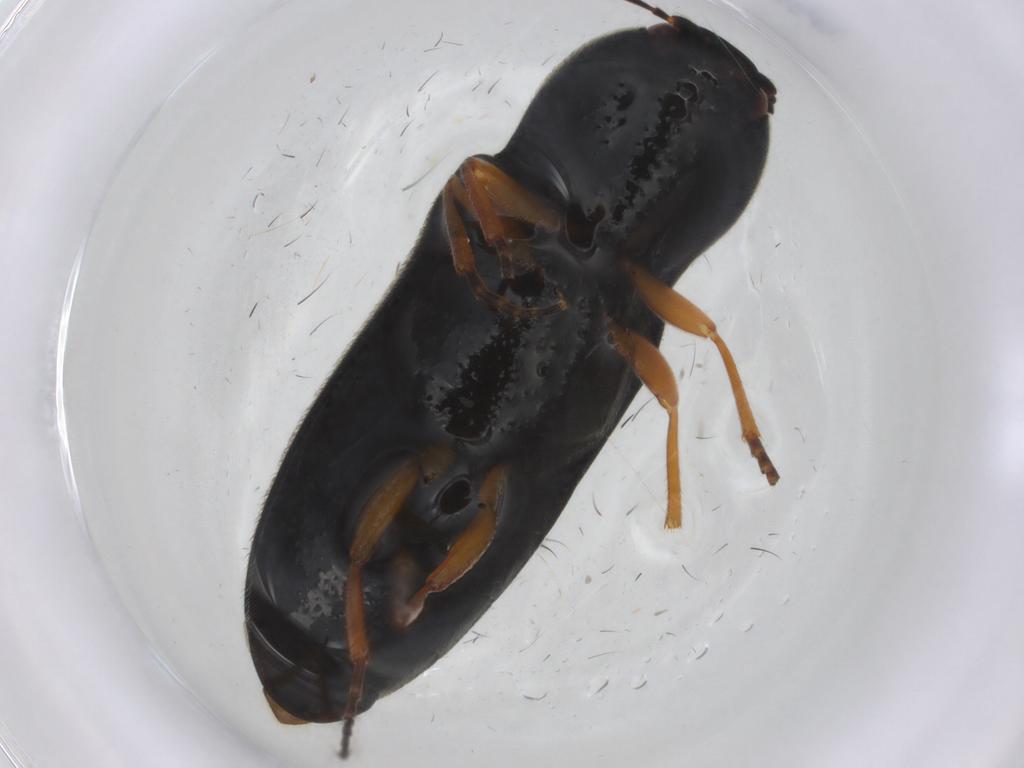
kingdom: Animalia
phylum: Arthropoda
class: Insecta
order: Coleoptera
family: Elateridae
